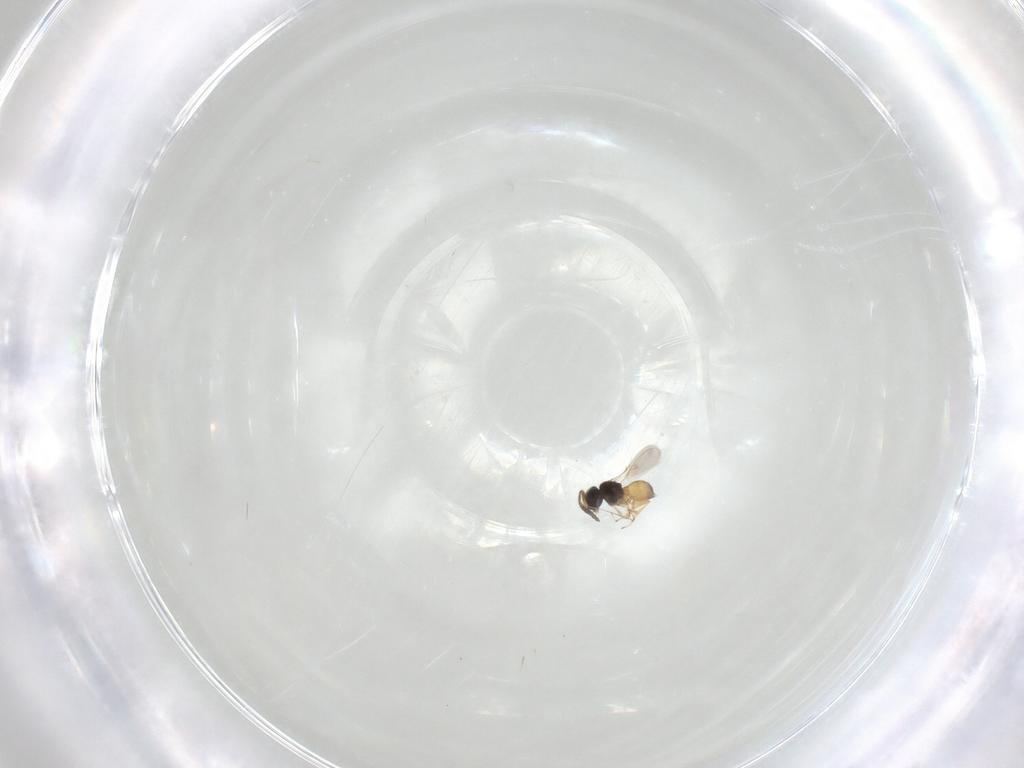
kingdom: Animalia
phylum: Arthropoda
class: Insecta
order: Hymenoptera
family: Scelionidae
